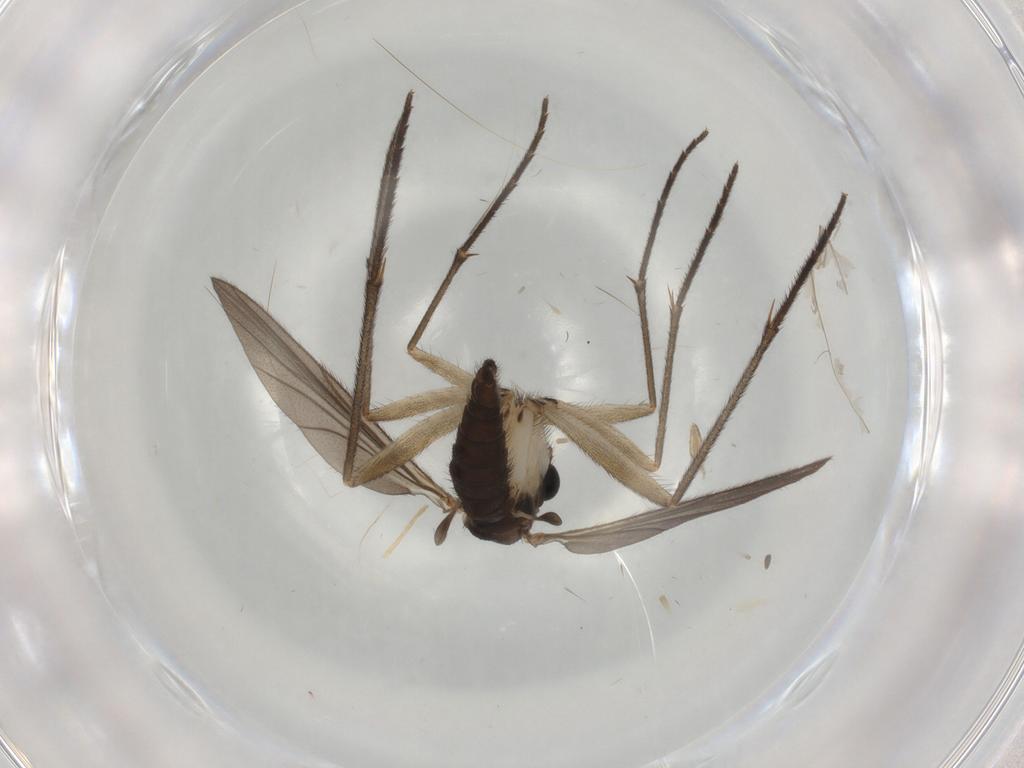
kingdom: Animalia
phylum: Arthropoda
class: Insecta
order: Diptera
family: Sciaridae
